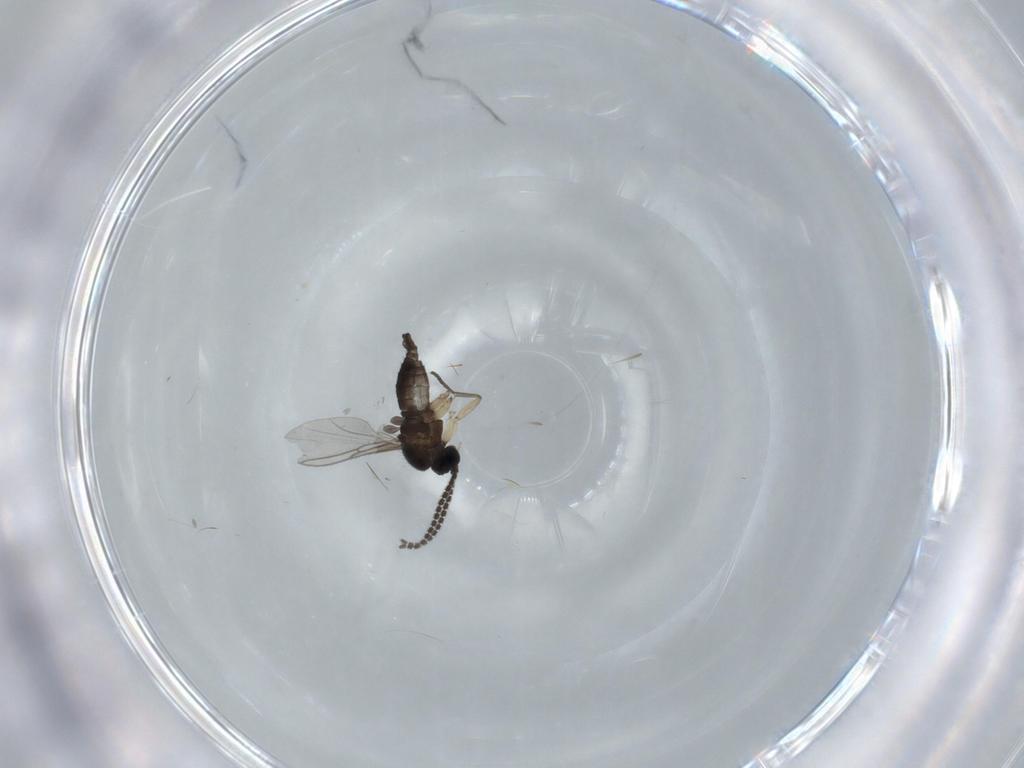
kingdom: Animalia
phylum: Arthropoda
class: Insecta
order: Diptera
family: Sciaridae
